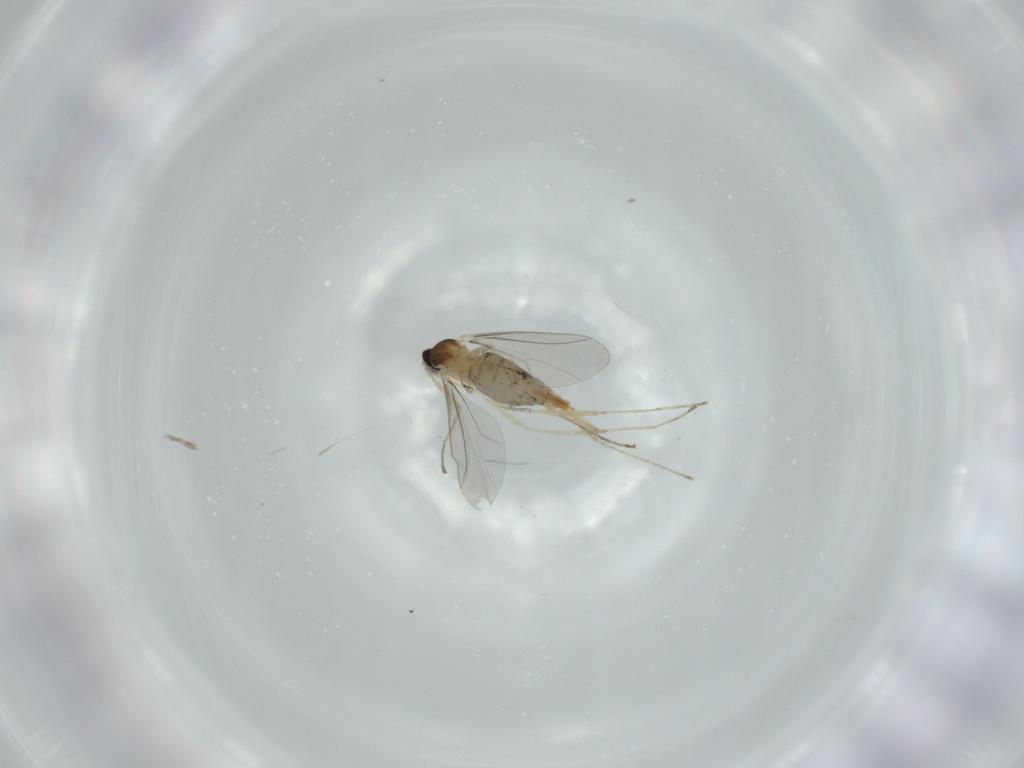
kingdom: Animalia
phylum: Arthropoda
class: Insecta
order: Diptera
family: Cecidomyiidae
